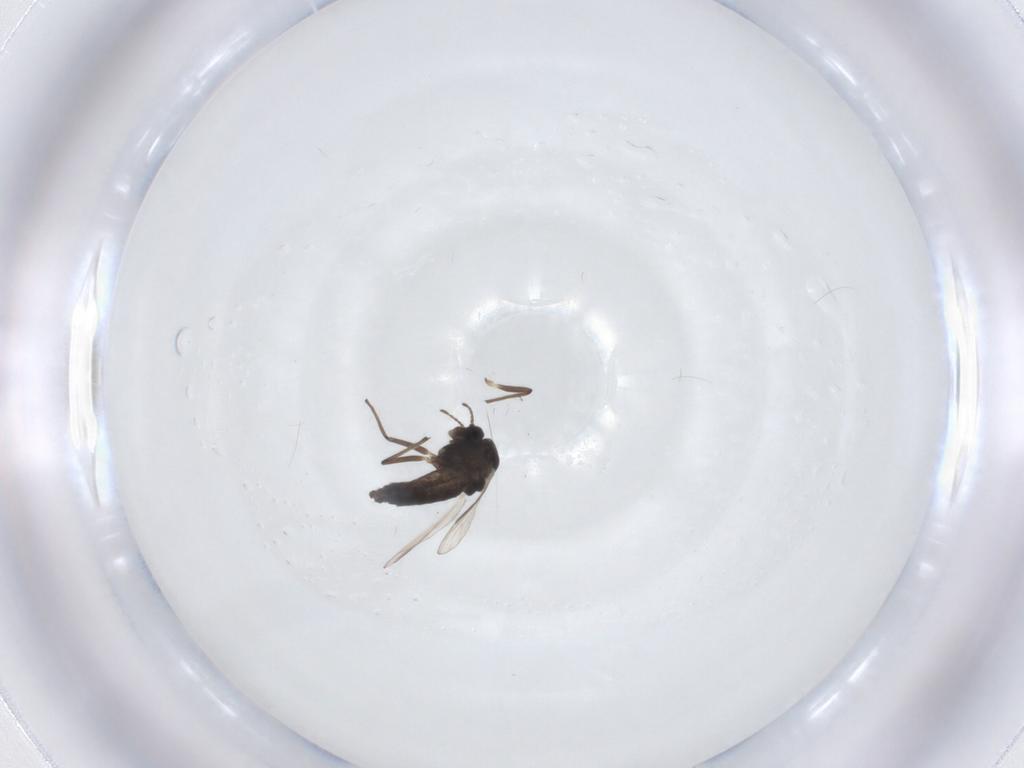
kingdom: Animalia
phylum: Arthropoda
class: Insecta
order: Diptera
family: Chironomidae
